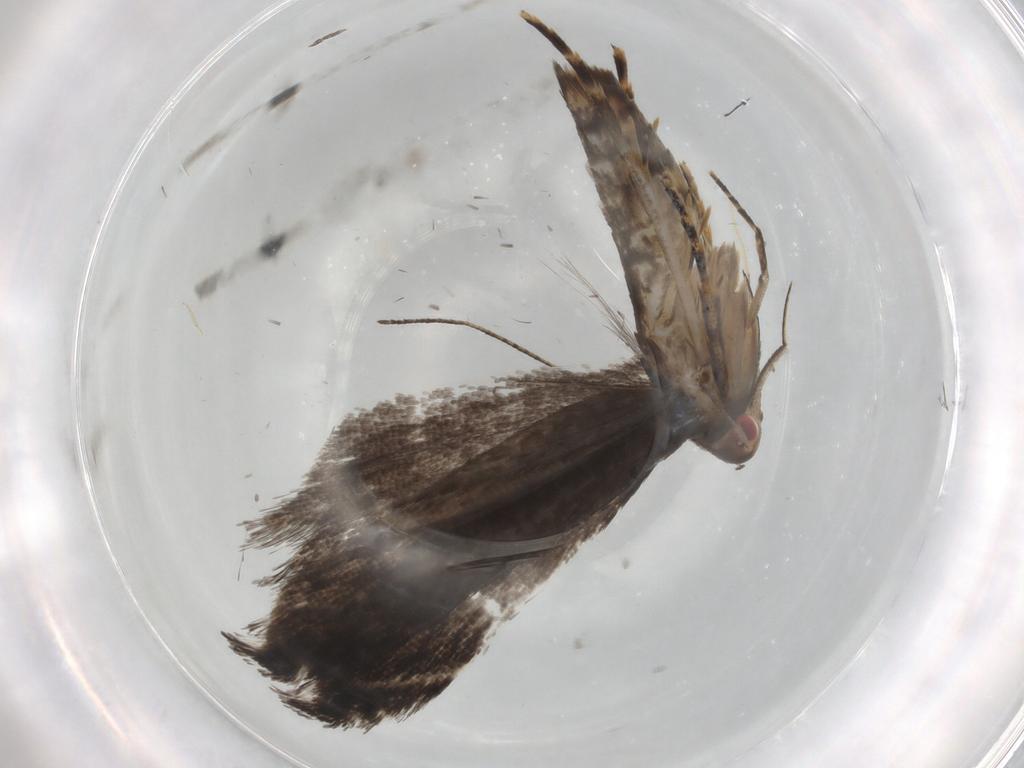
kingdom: Animalia
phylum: Arthropoda
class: Insecta
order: Lepidoptera
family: Gelechiidae
